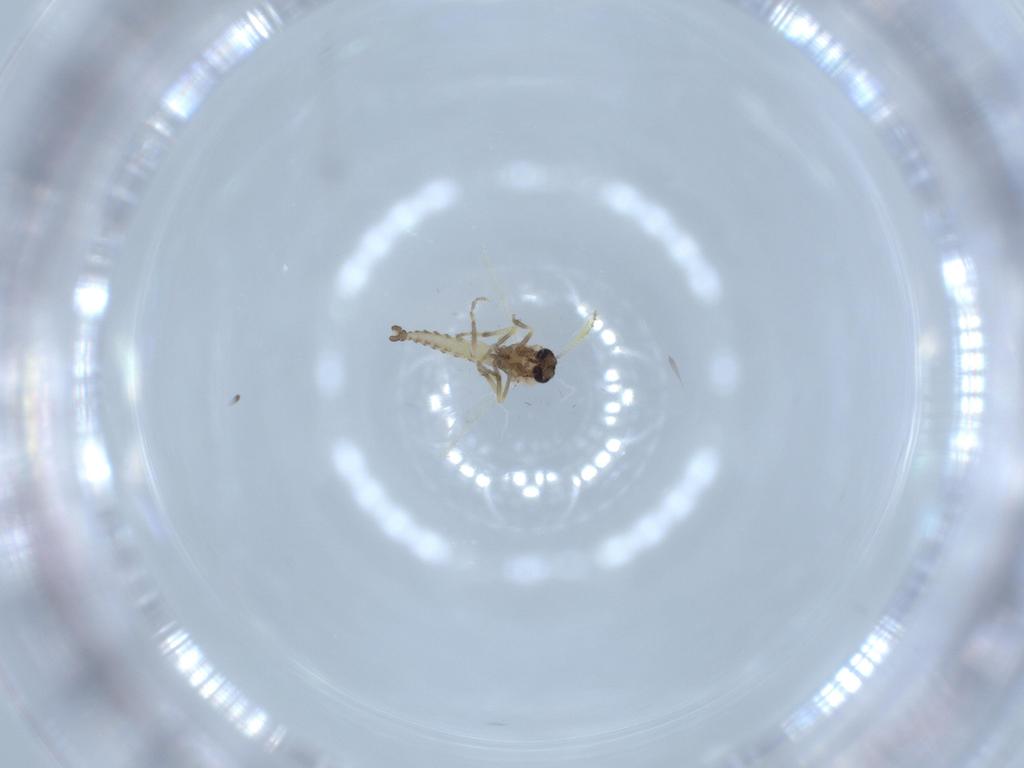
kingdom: Animalia
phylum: Arthropoda
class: Insecta
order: Diptera
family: Ceratopogonidae
